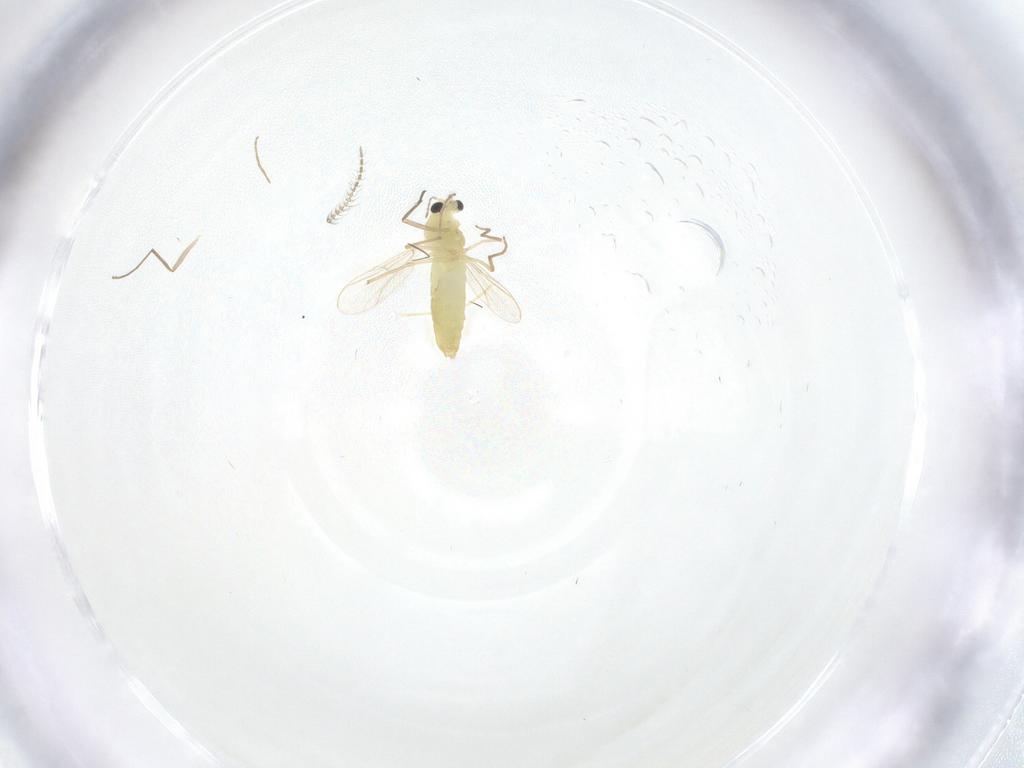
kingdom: Animalia
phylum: Arthropoda
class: Insecta
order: Diptera
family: Chironomidae
